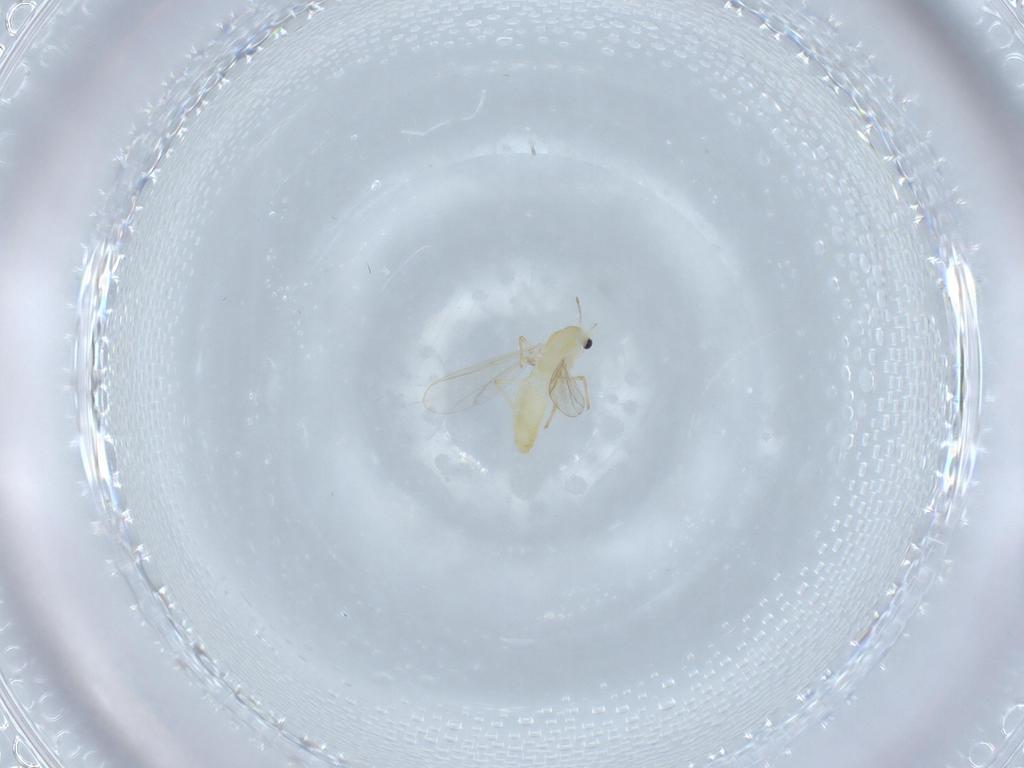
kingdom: Animalia
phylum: Arthropoda
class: Insecta
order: Diptera
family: Chironomidae
